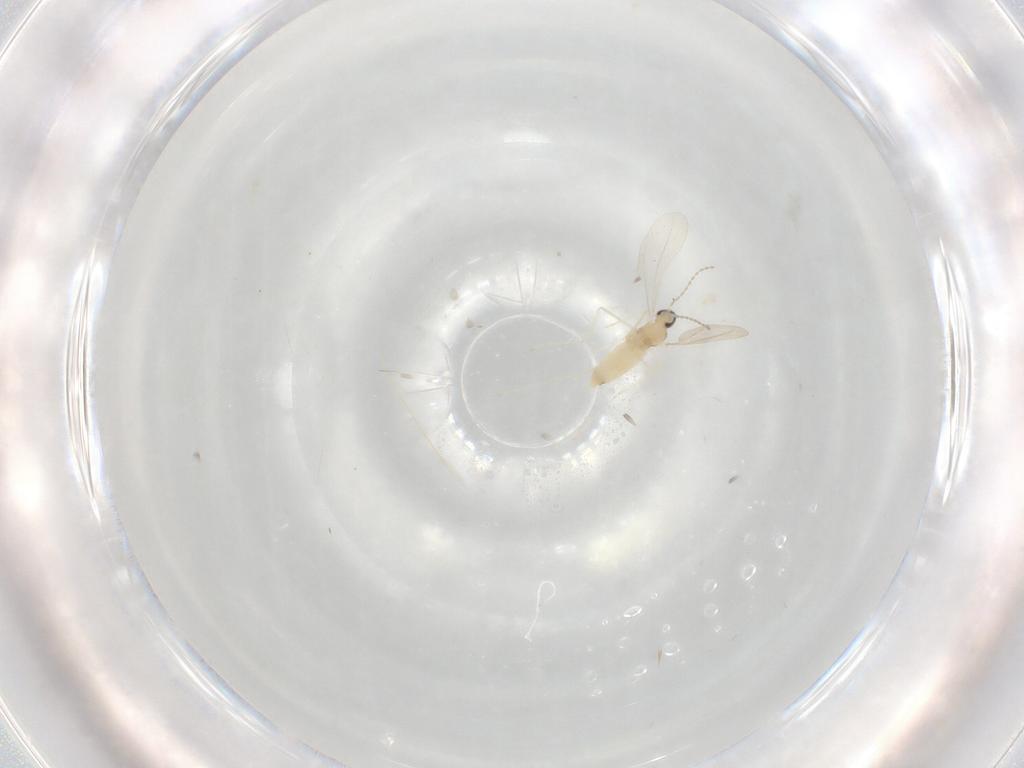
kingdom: Animalia
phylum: Arthropoda
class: Insecta
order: Diptera
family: Cecidomyiidae
